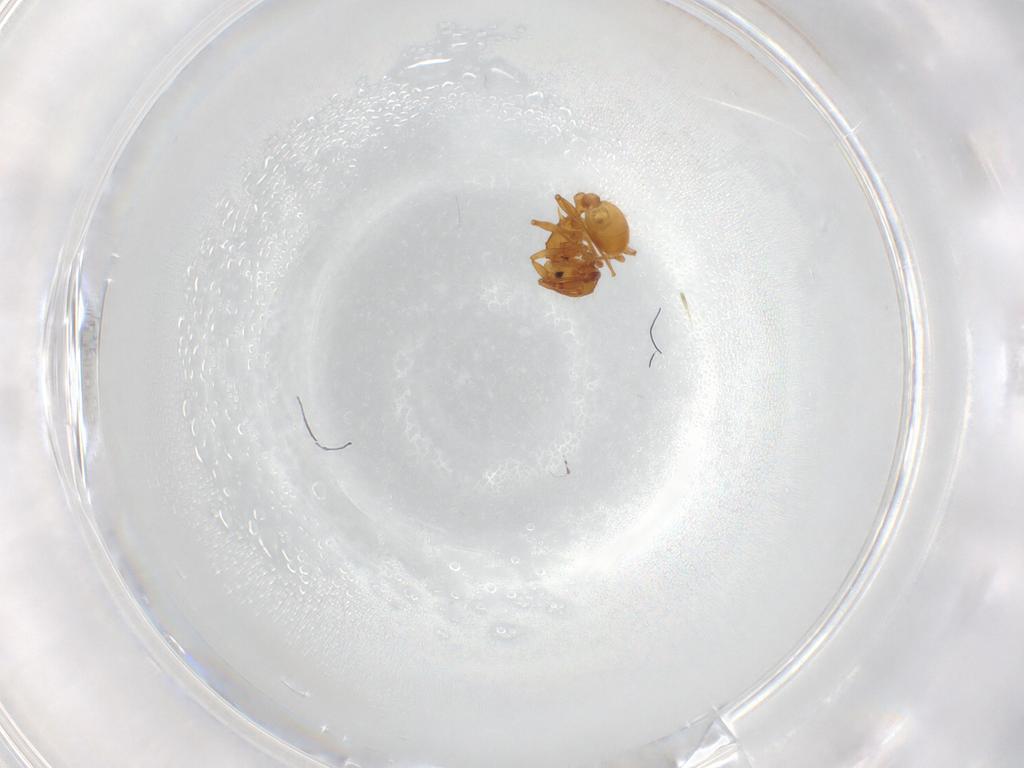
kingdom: Animalia
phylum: Arthropoda
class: Insecta
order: Hymenoptera
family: Formicidae
